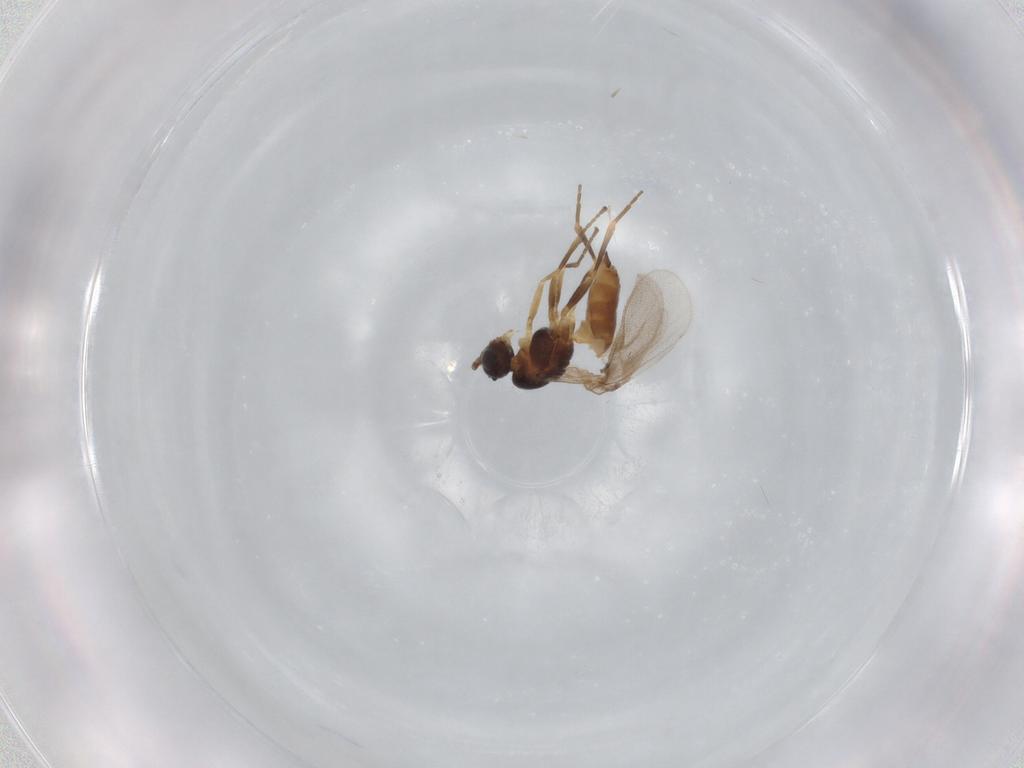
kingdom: Animalia
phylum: Arthropoda
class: Insecta
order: Hymenoptera
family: Braconidae
